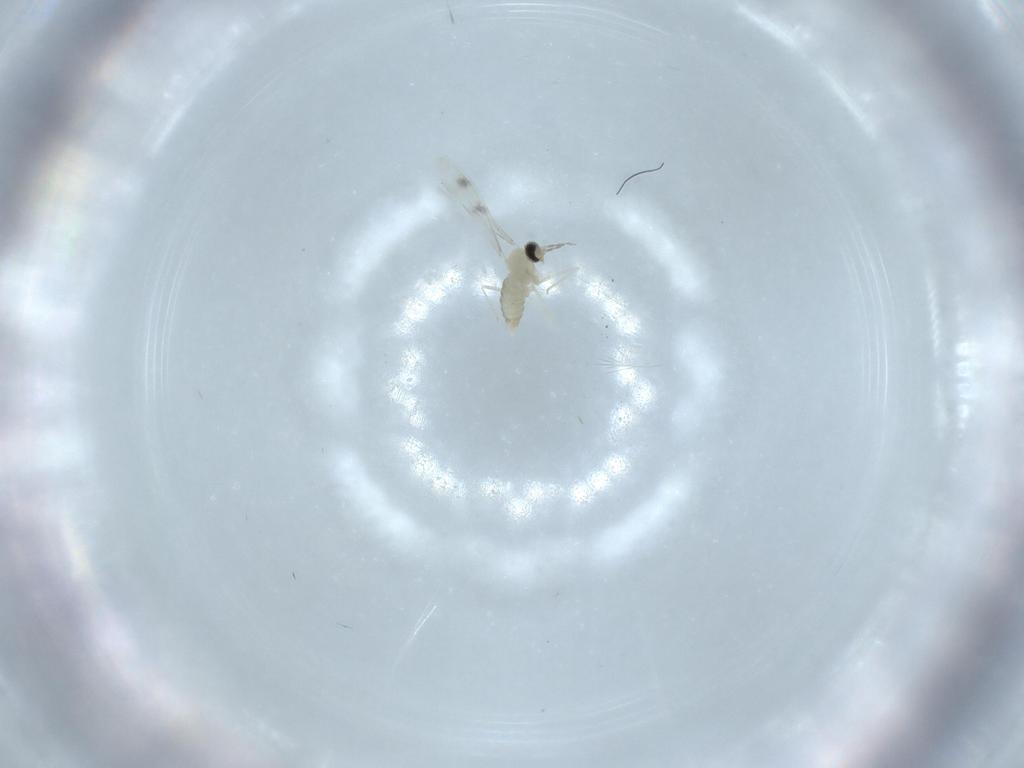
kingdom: Animalia
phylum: Arthropoda
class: Insecta
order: Diptera
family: Cecidomyiidae
